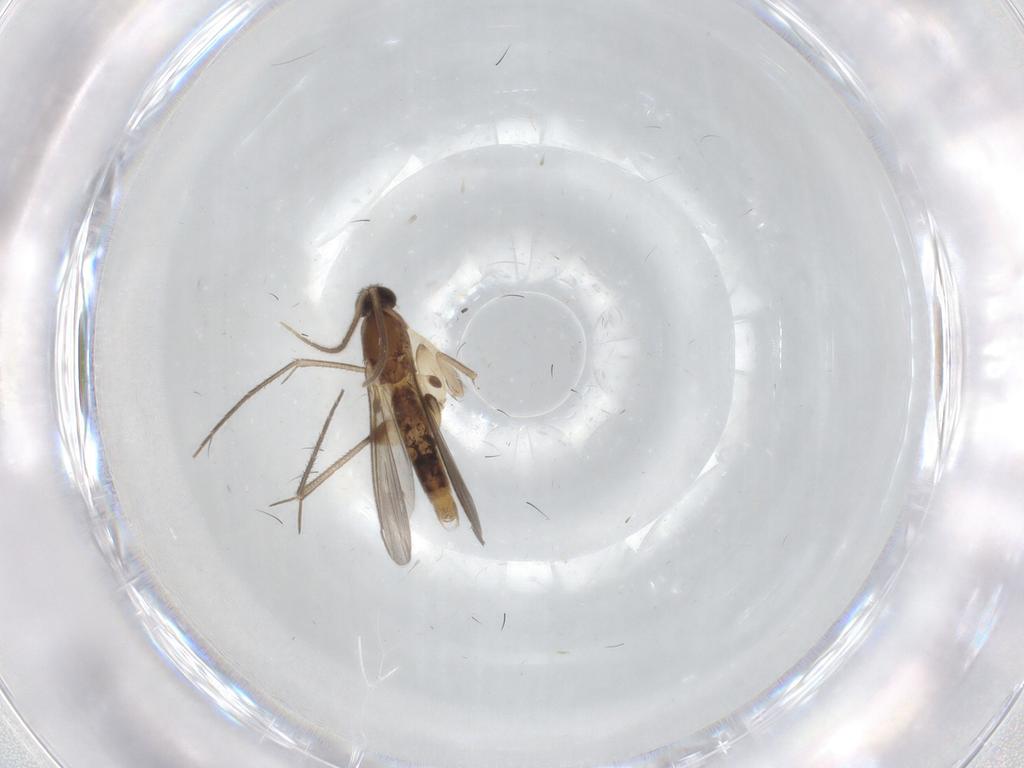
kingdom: Animalia
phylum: Arthropoda
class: Insecta
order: Diptera
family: Mycetophilidae
